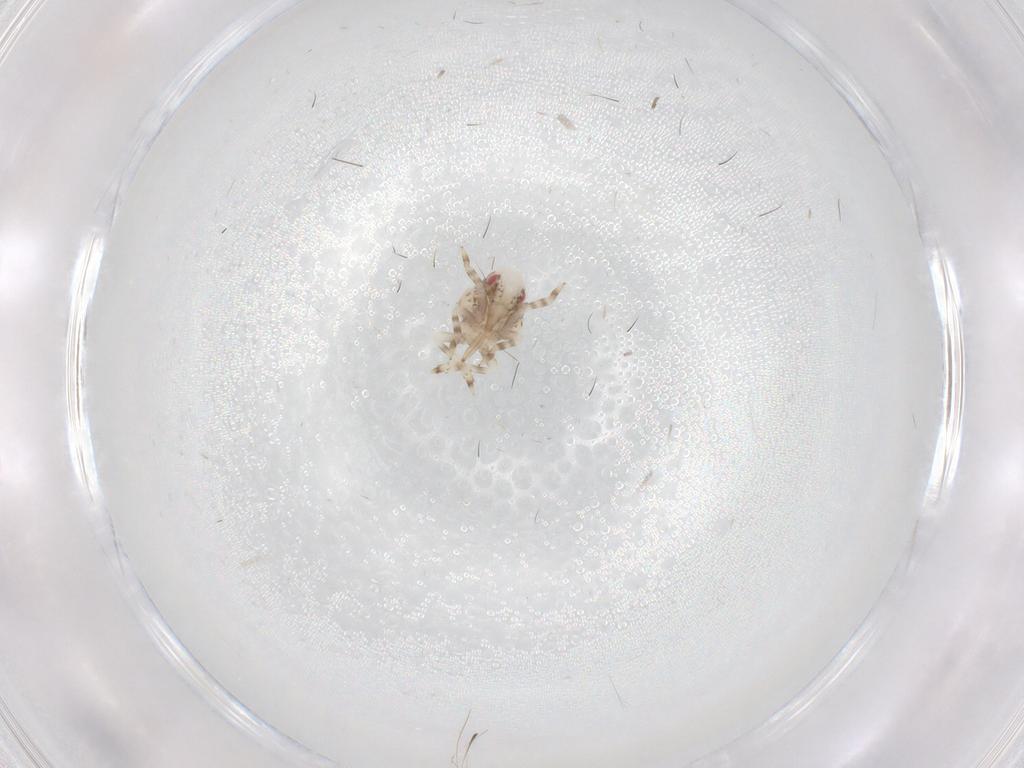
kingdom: Animalia
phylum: Arthropoda
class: Insecta
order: Hemiptera
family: Acanaloniidae
